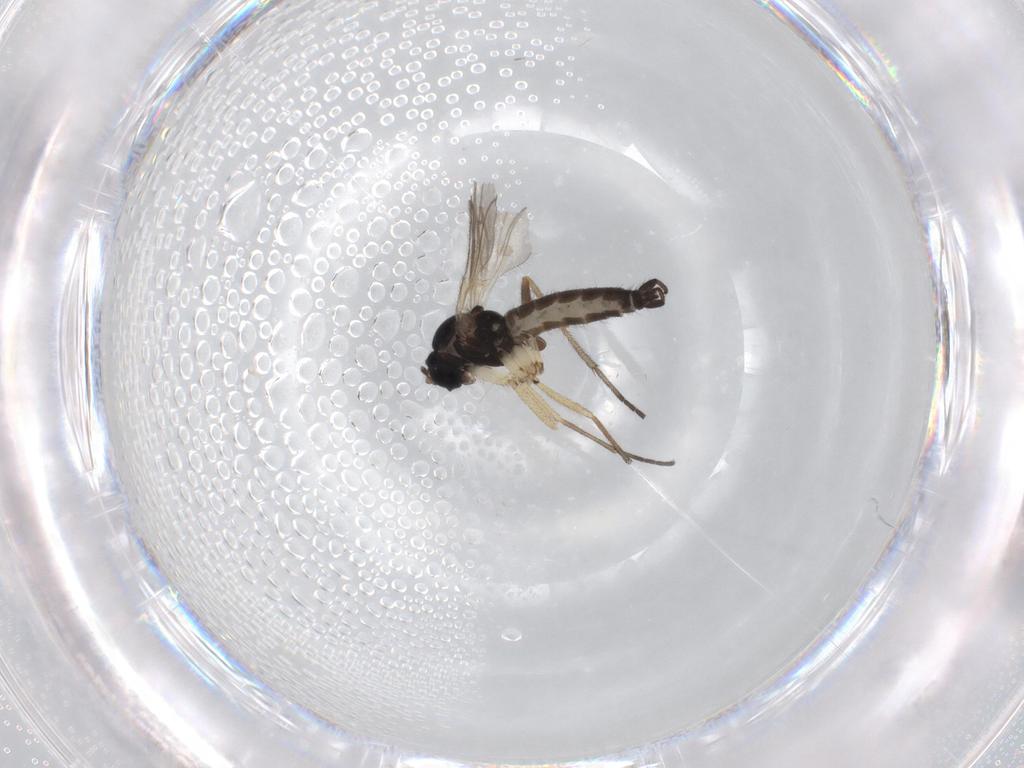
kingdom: Animalia
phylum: Arthropoda
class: Insecta
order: Diptera
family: Sciaridae
